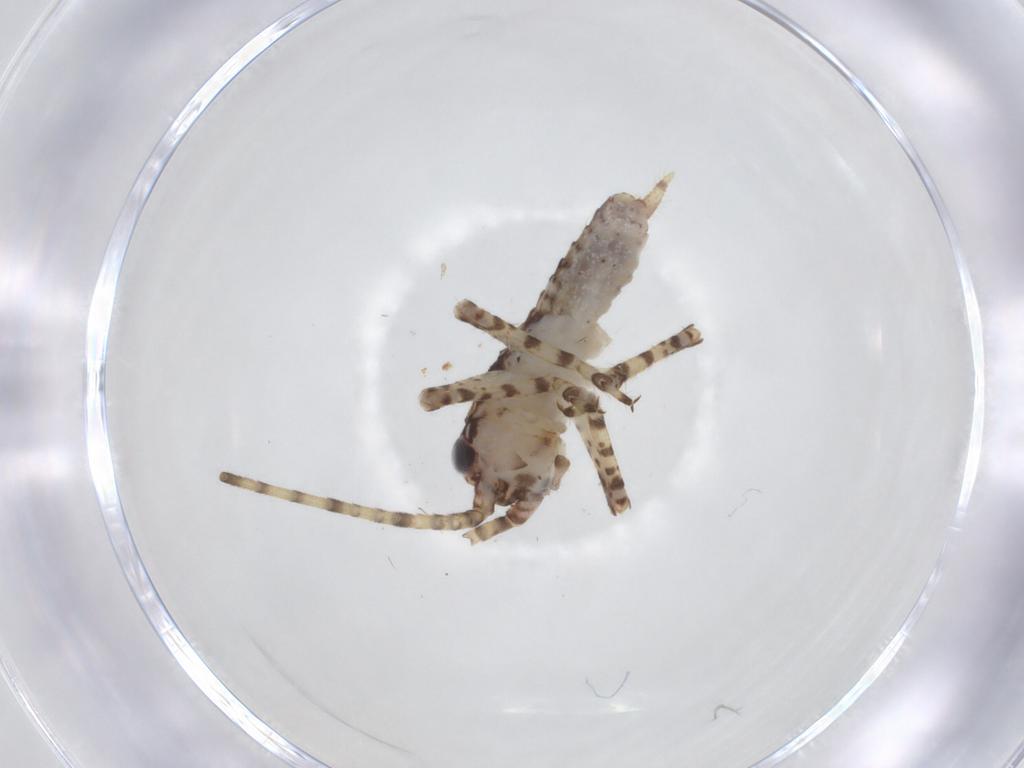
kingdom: Animalia
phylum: Arthropoda
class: Insecta
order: Orthoptera
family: Gryllidae
